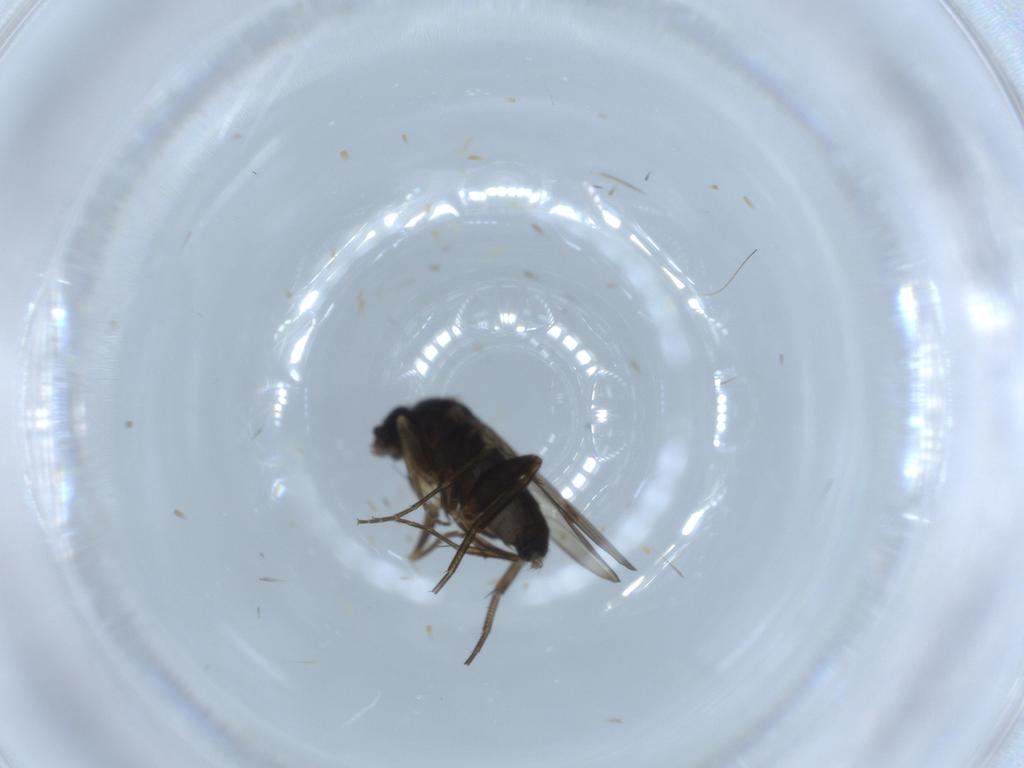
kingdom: Animalia
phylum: Arthropoda
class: Insecta
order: Diptera
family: Phoridae
